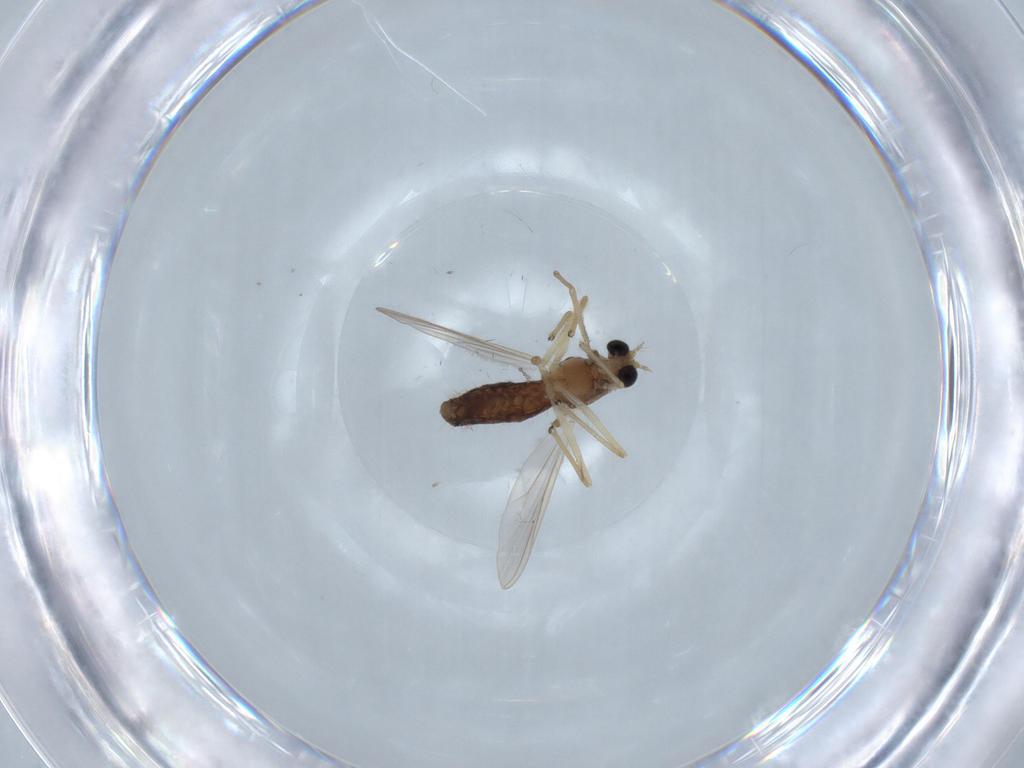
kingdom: Animalia
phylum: Arthropoda
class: Insecta
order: Diptera
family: Chironomidae
